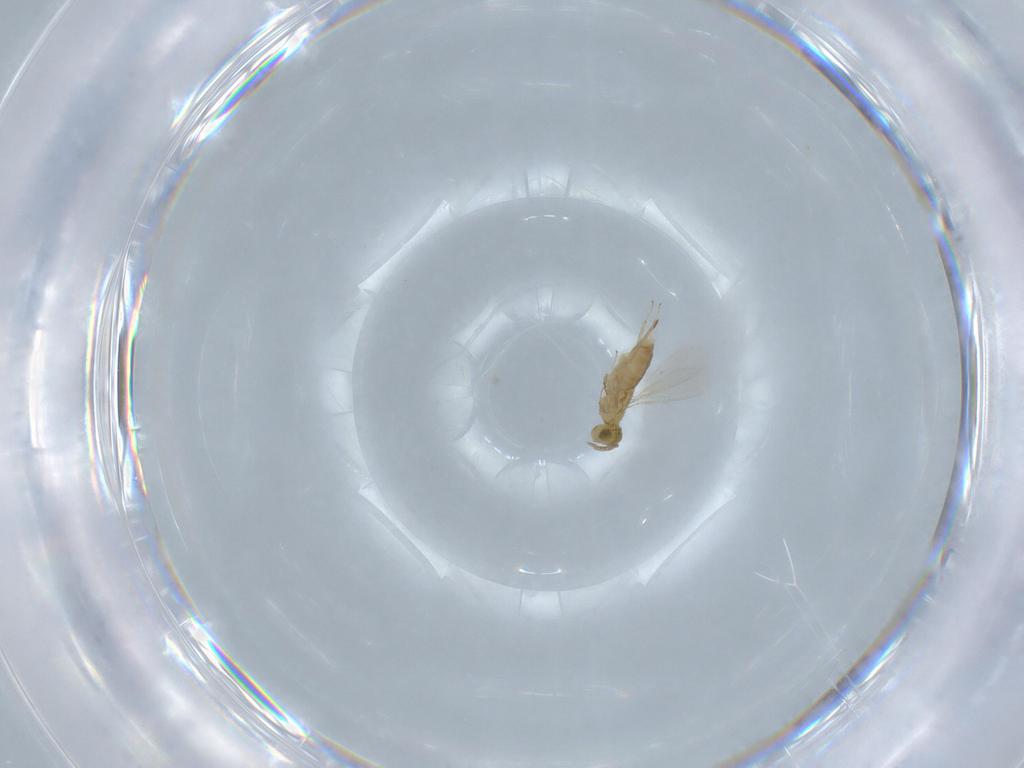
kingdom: Animalia
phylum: Arthropoda
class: Insecta
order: Hymenoptera
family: Aphelinidae
